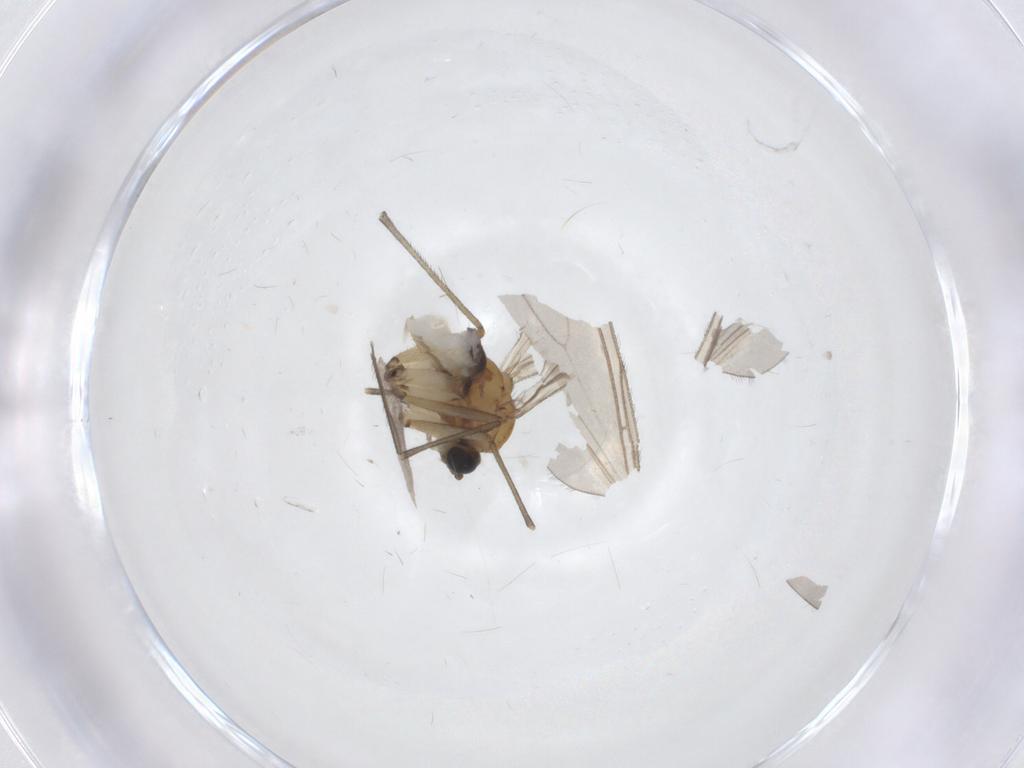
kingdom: Animalia
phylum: Arthropoda
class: Insecta
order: Diptera
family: Sciaridae
